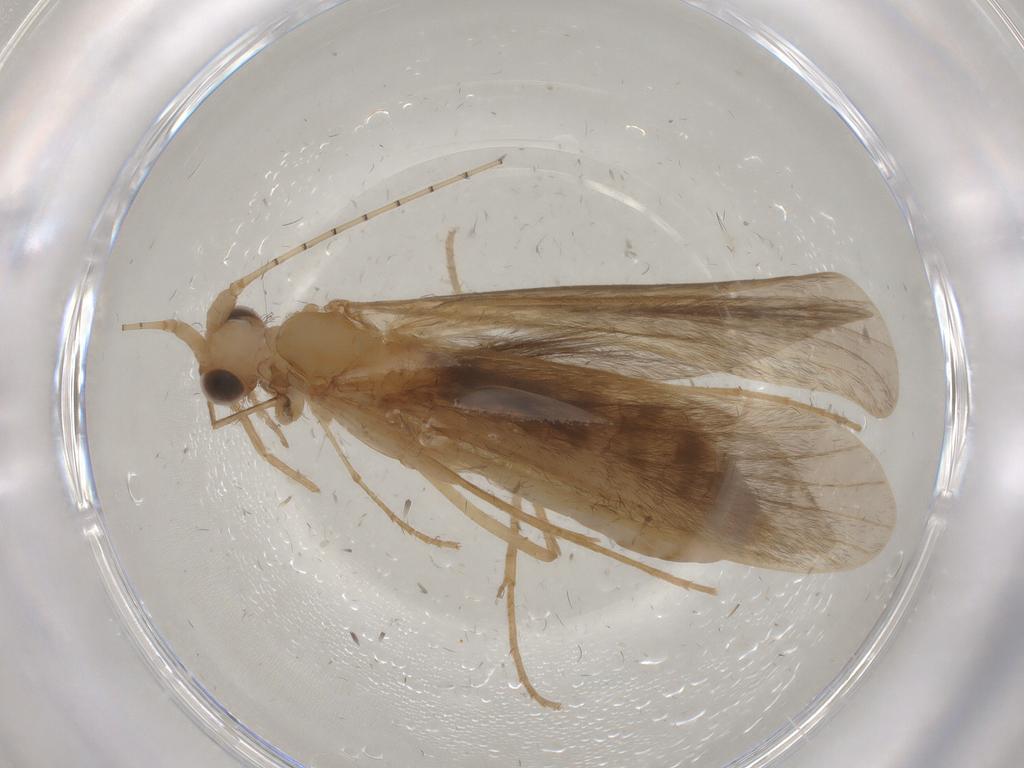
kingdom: Animalia
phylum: Arthropoda
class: Insecta
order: Trichoptera
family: Leptoceridae
